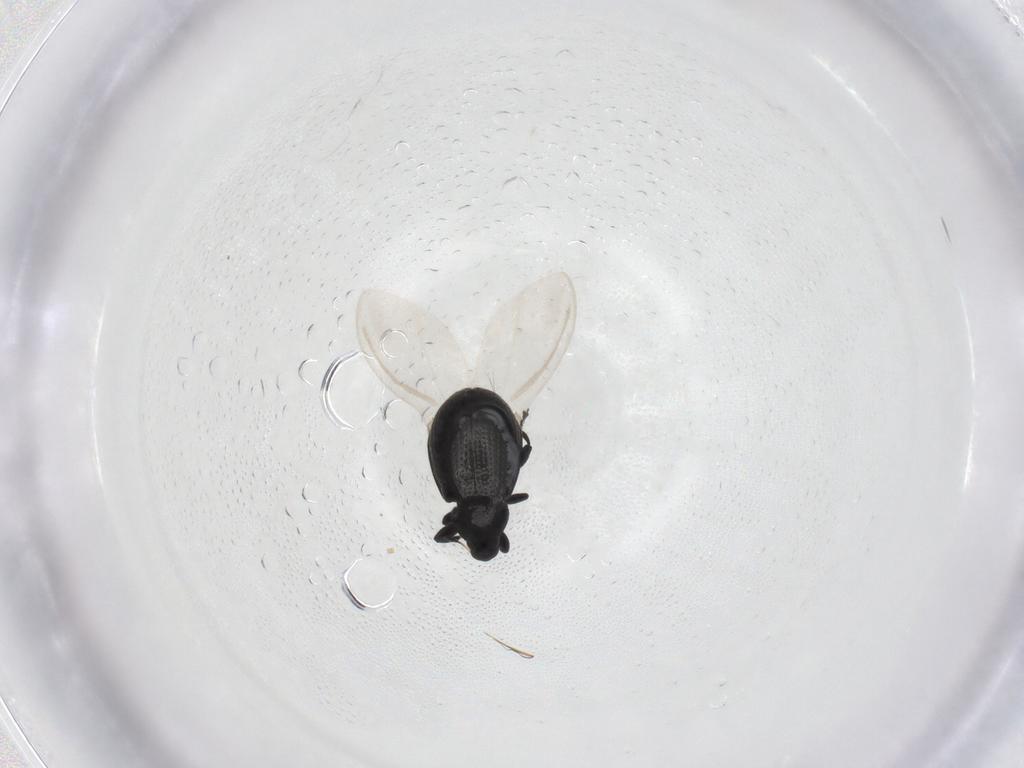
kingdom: Animalia
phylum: Arthropoda
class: Insecta
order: Coleoptera
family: Curculionidae
